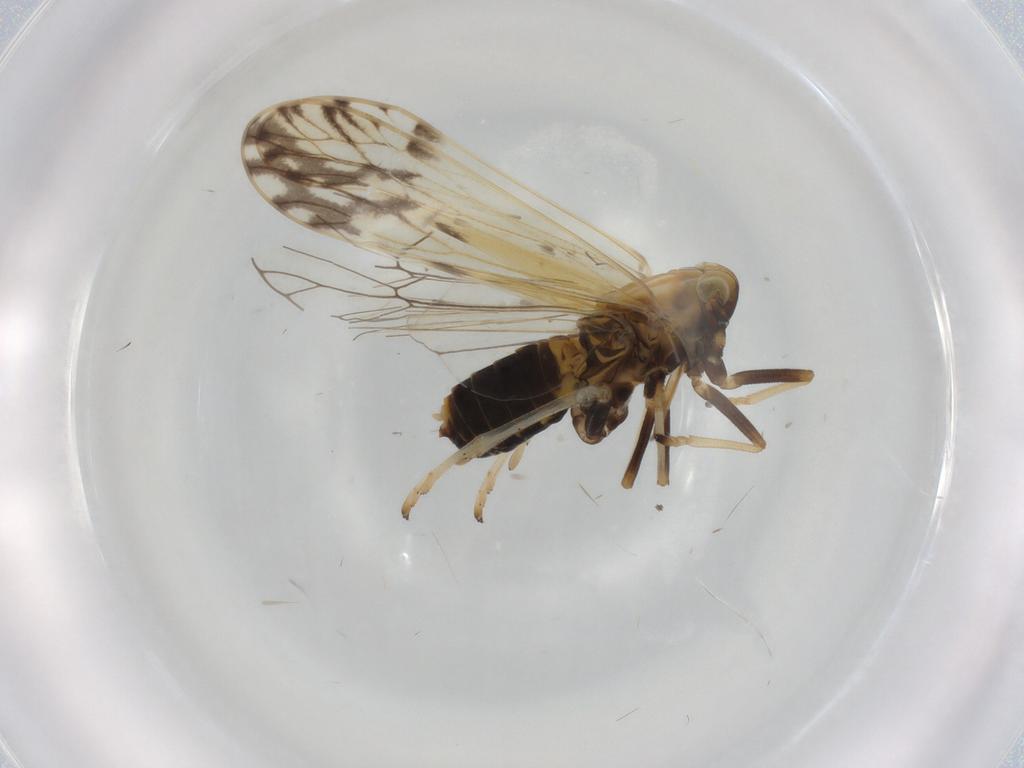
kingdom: Animalia
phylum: Arthropoda
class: Insecta
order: Hemiptera
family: Delphacidae
